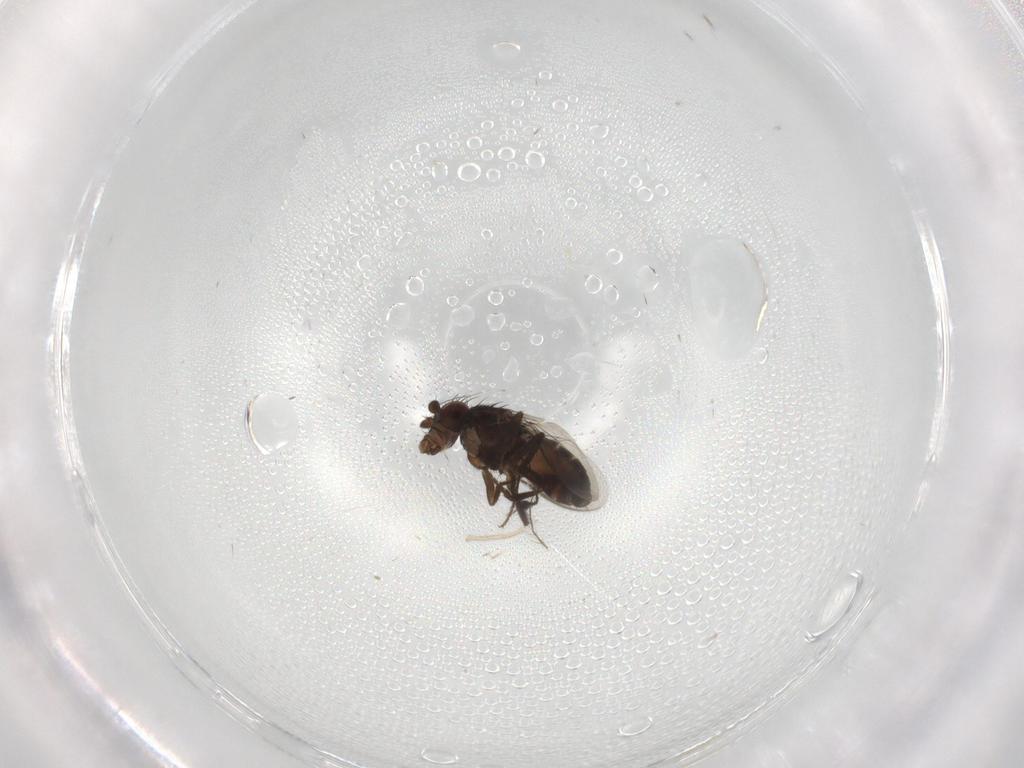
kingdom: Animalia
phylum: Arthropoda
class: Insecta
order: Diptera
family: Sphaeroceridae
